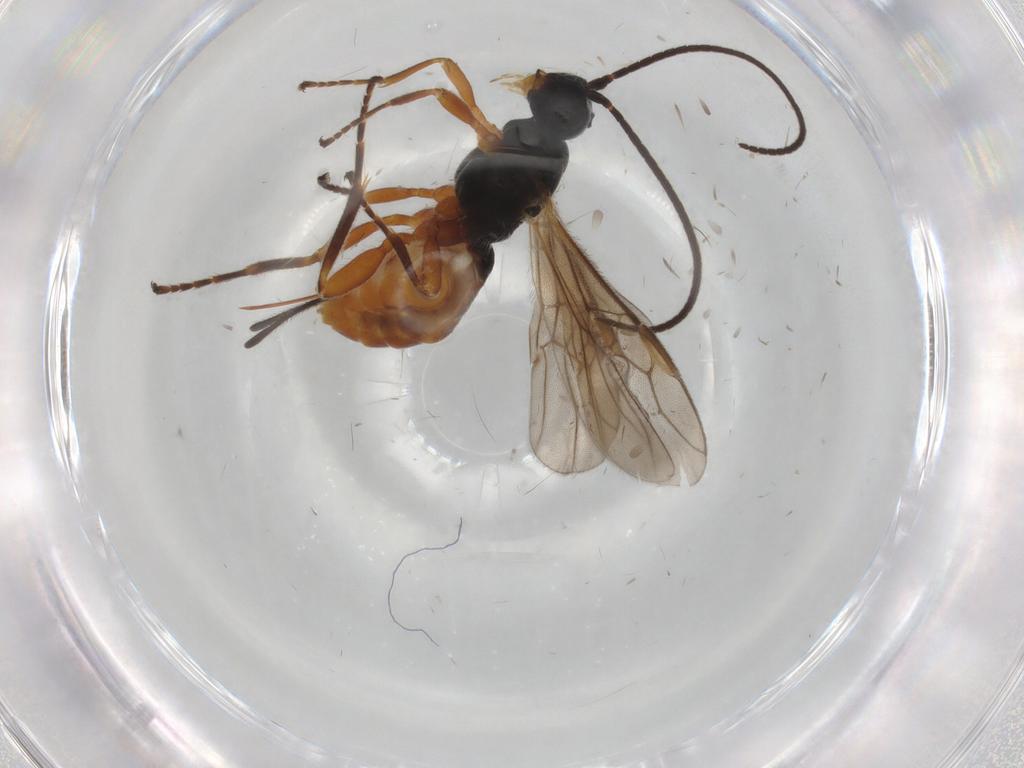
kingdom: Animalia
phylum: Arthropoda
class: Insecta
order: Hymenoptera
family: Braconidae
